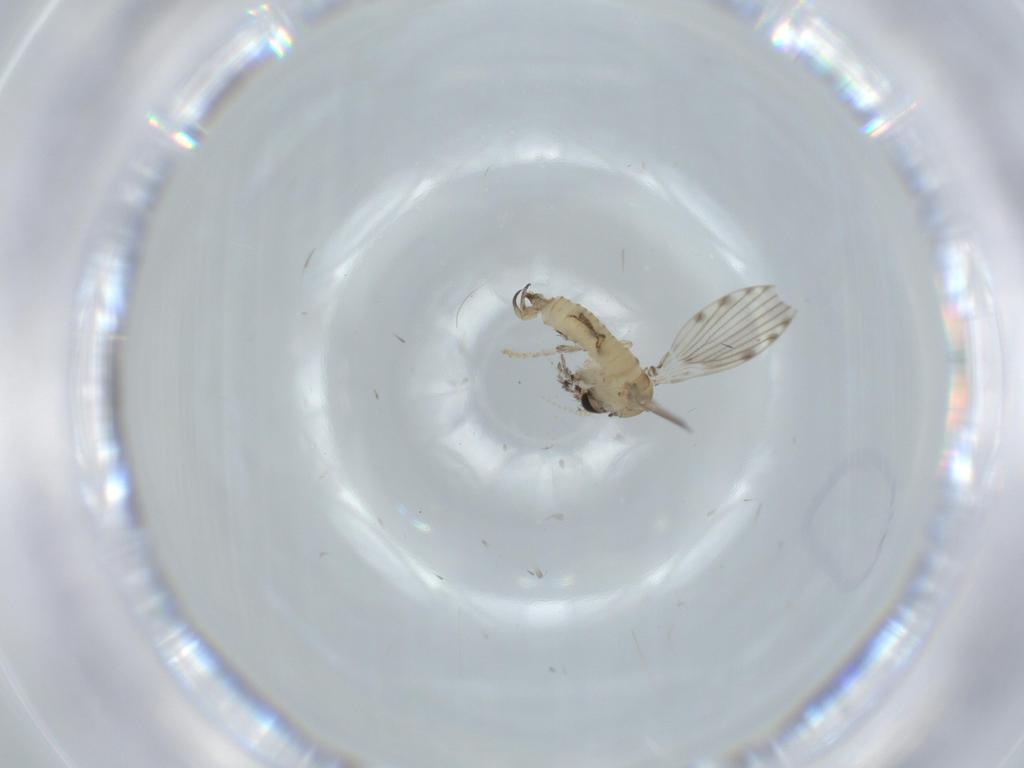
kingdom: Animalia
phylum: Arthropoda
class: Insecta
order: Diptera
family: Psychodidae
